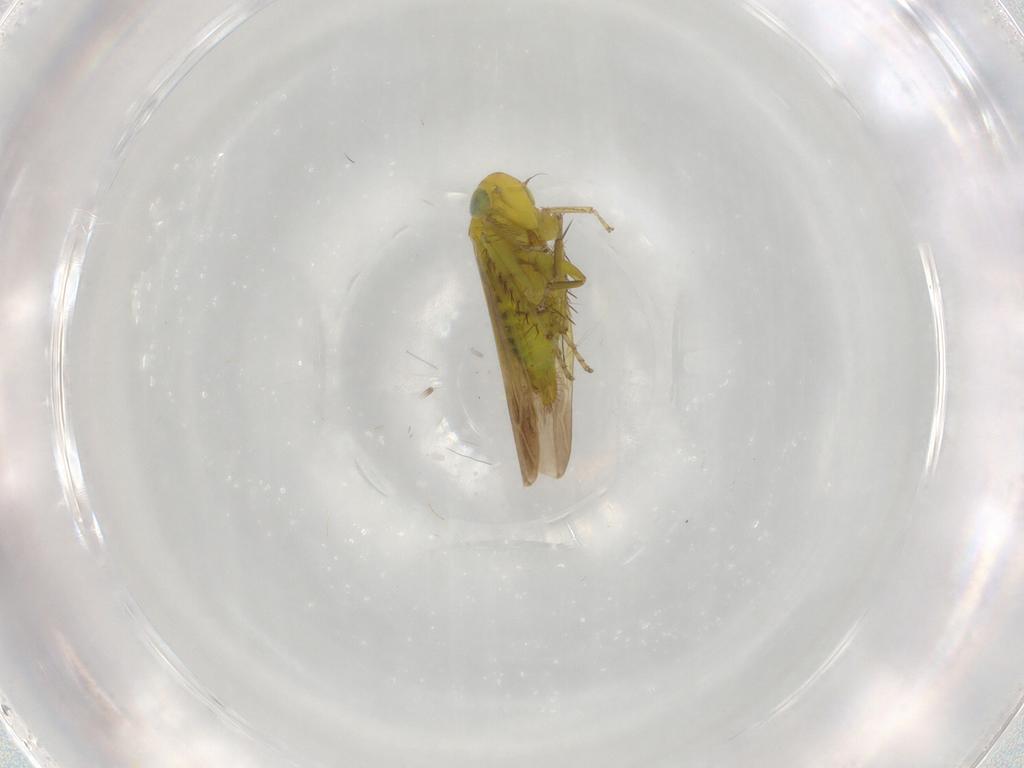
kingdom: Animalia
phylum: Arthropoda
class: Insecta
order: Hemiptera
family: Cicadellidae
